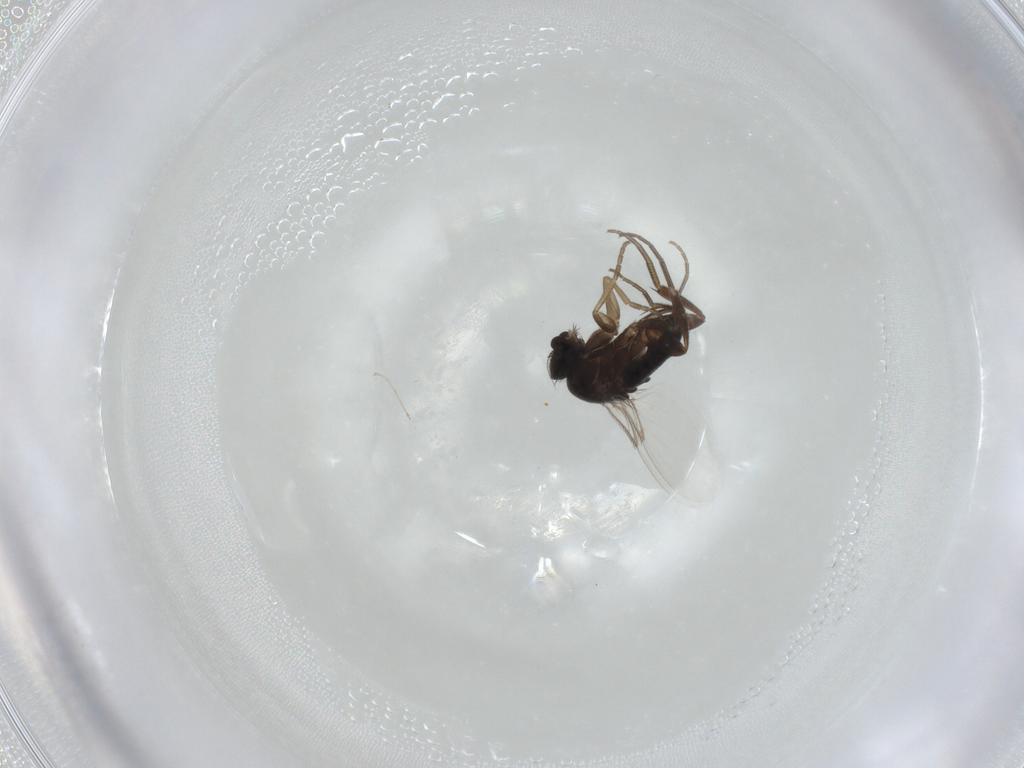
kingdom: Animalia
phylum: Arthropoda
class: Insecta
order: Diptera
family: Phoridae
